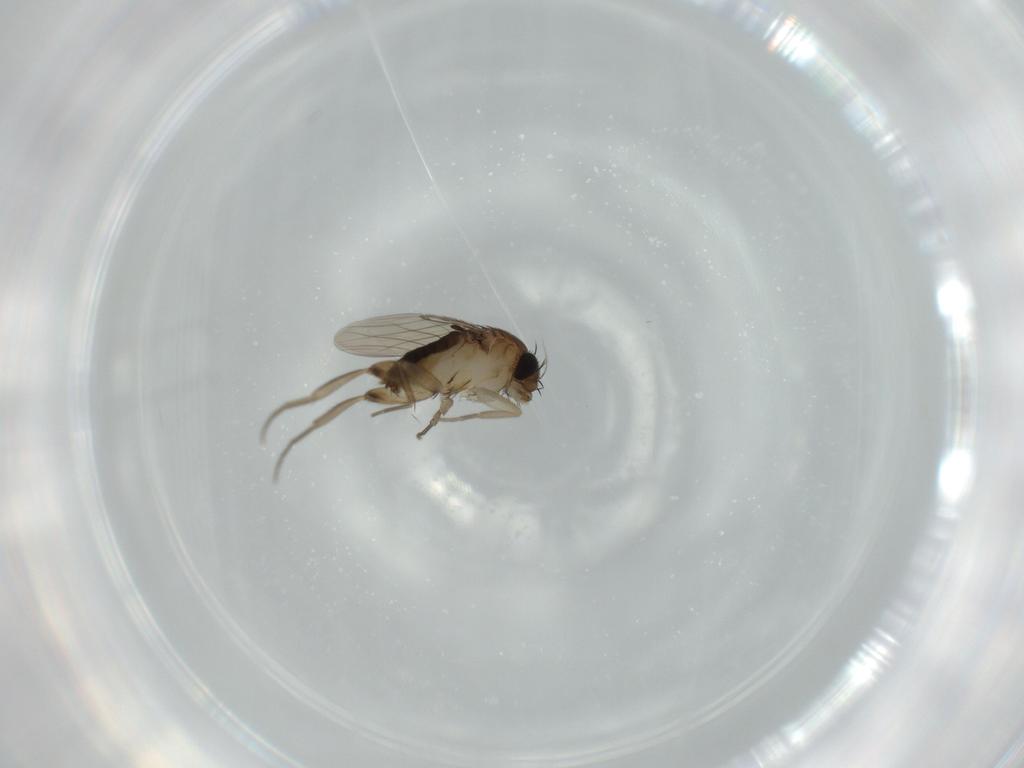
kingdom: Animalia
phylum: Arthropoda
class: Insecta
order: Diptera
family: Phoridae
